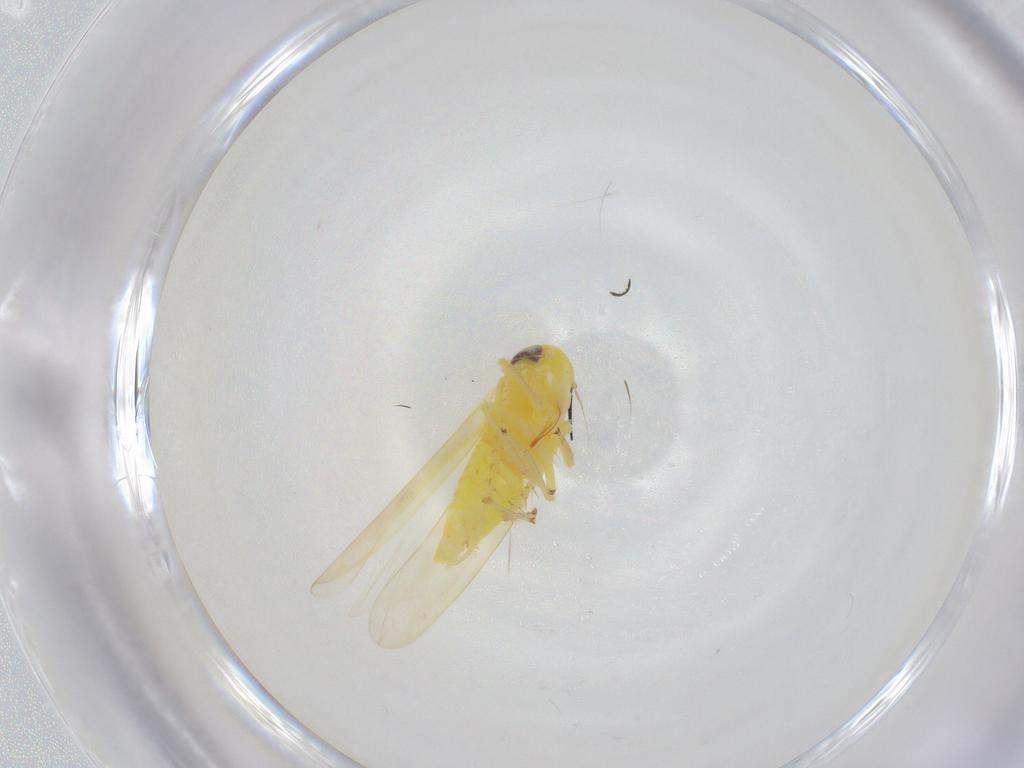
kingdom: Animalia
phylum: Arthropoda
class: Insecta
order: Hemiptera
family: Cicadellidae
